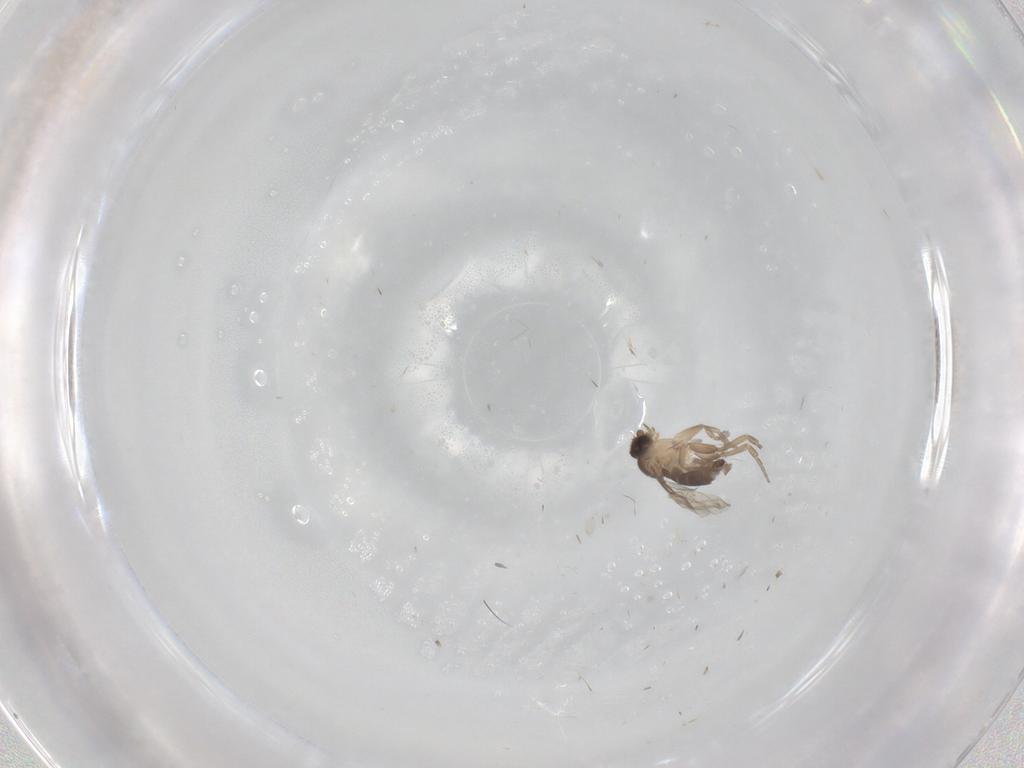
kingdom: Animalia
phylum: Arthropoda
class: Insecta
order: Diptera
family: Phoridae
